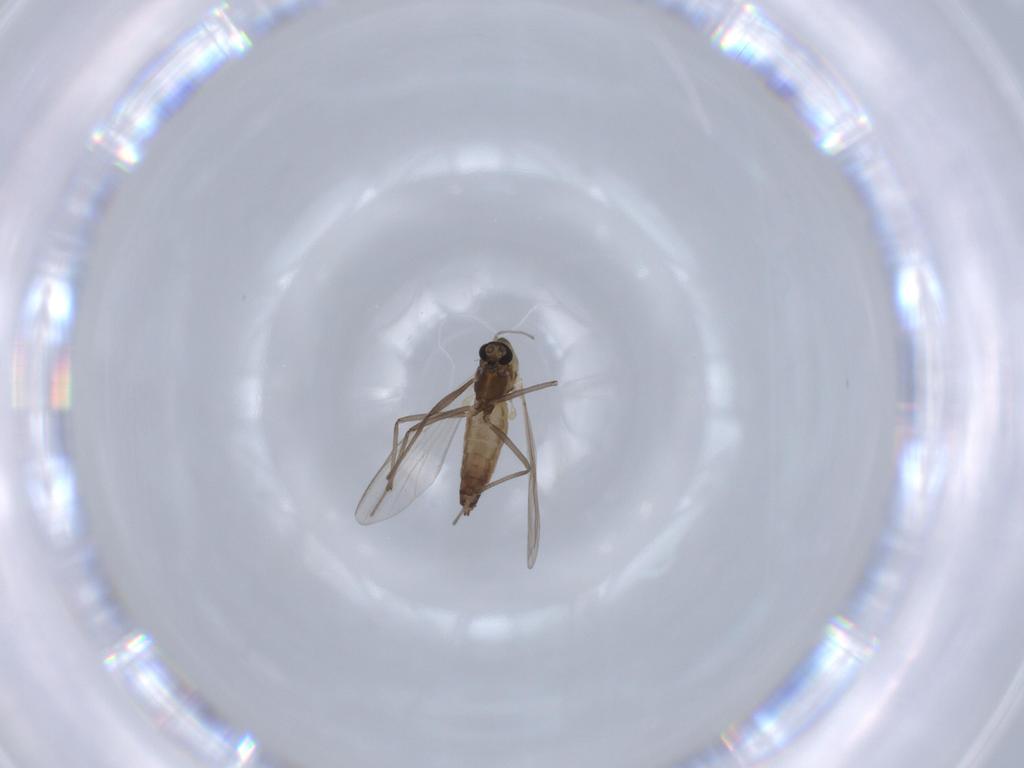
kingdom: Animalia
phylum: Arthropoda
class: Insecta
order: Diptera
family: Chironomidae
